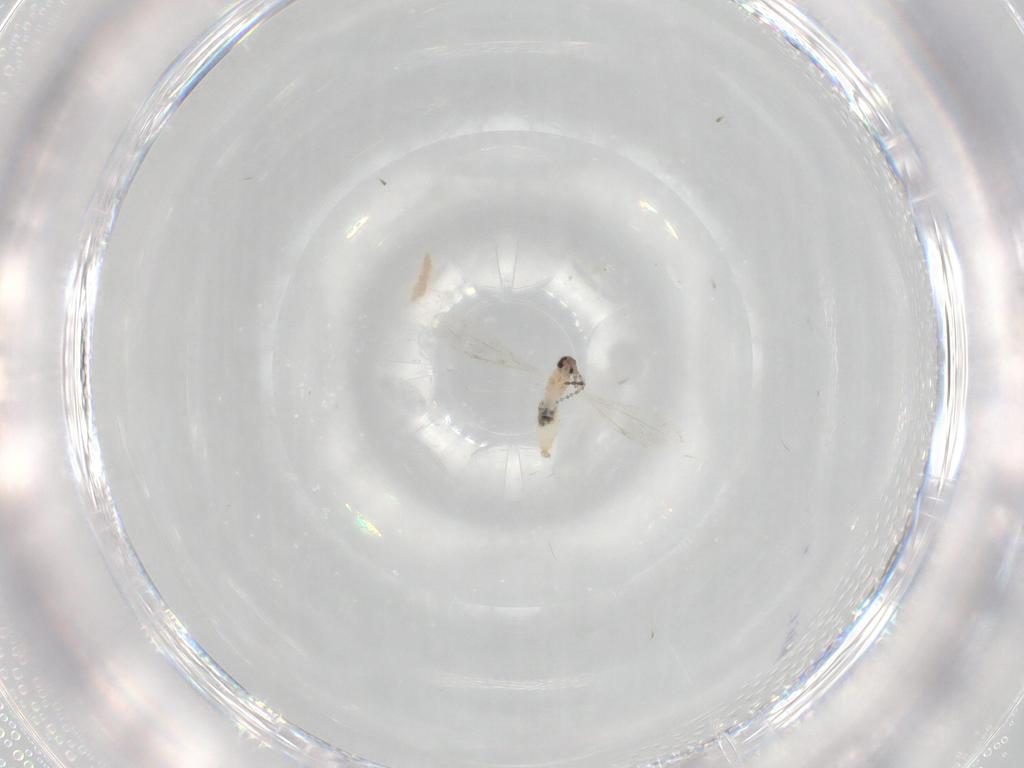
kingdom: Animalia
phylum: Arthropoda
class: Insecta
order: Diptera
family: Cecidomyiidae
